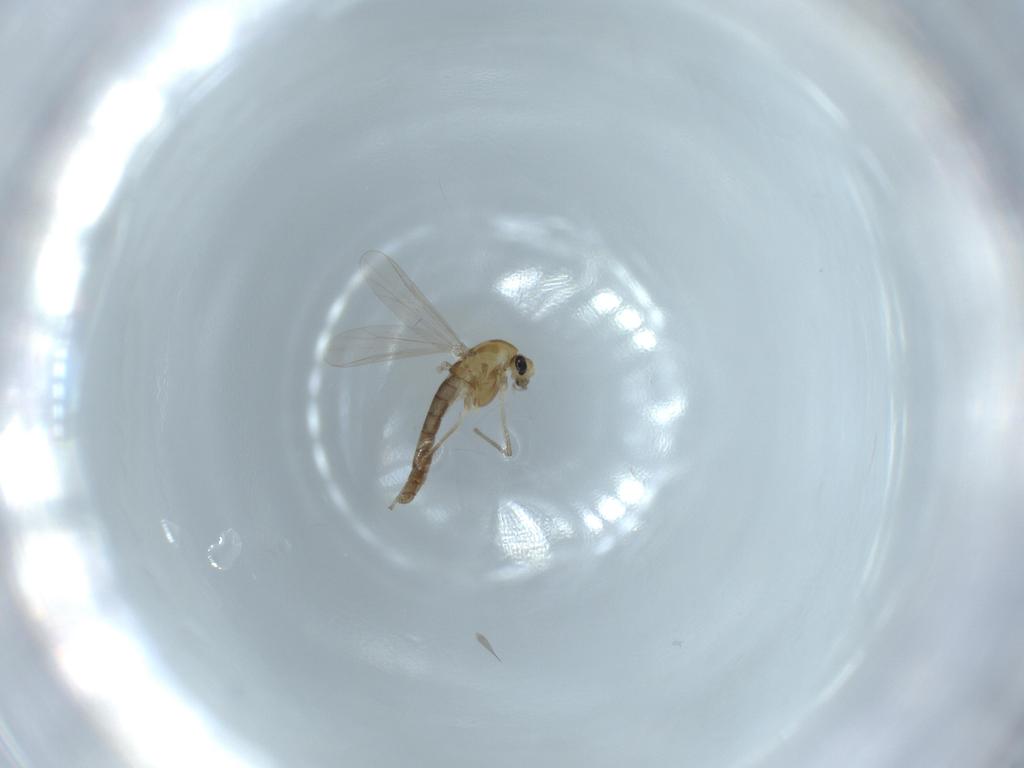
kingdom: Animalia
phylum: Arthropoda
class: Insecta
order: Diptera
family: Chironomidae
